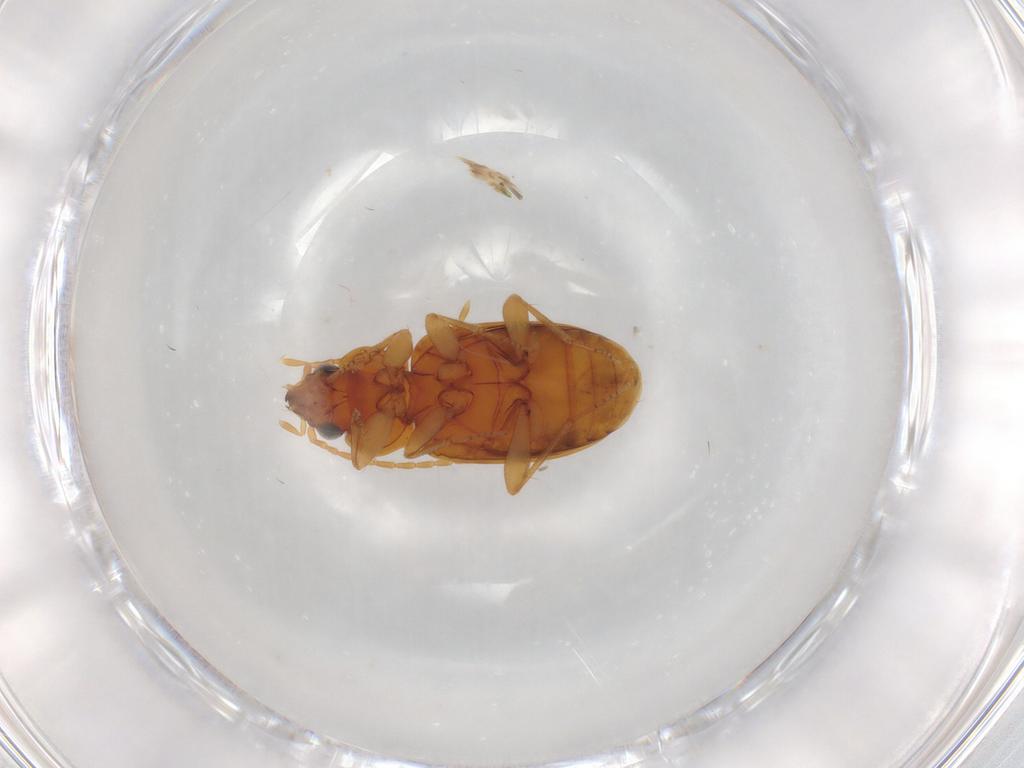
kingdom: Animalia
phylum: Arthropoda
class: Insecta
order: Coleoptera
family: Carabidae
